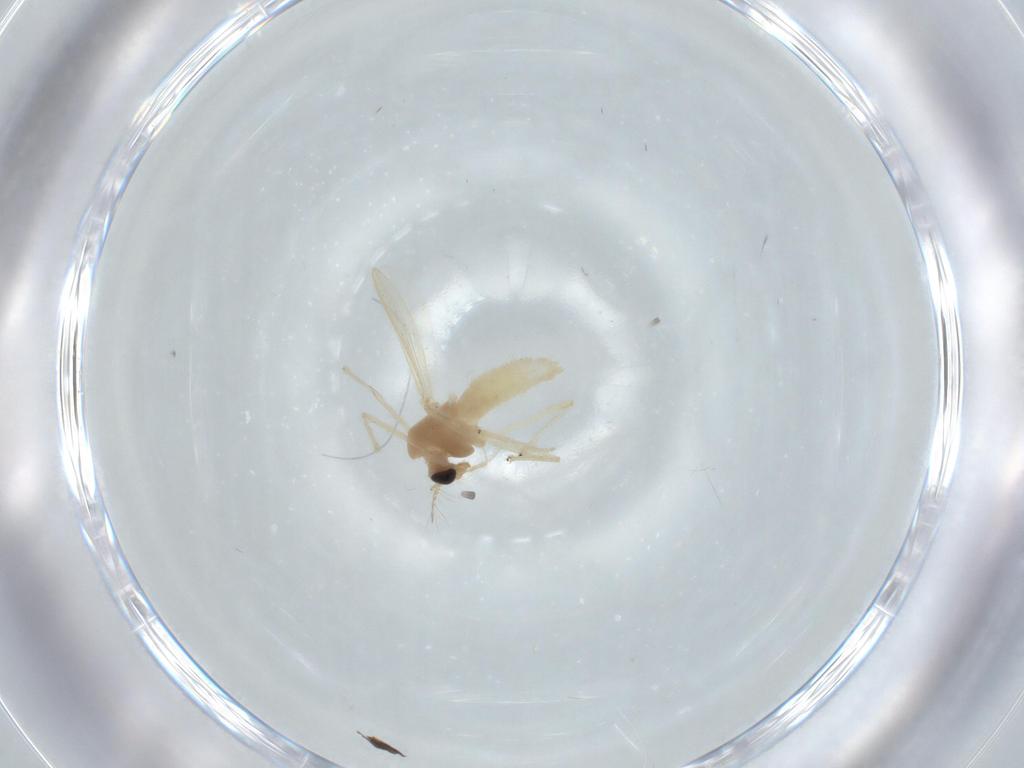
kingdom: Animalia
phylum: Arthropoda
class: Insecta
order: Diptera
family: Chironomidae
